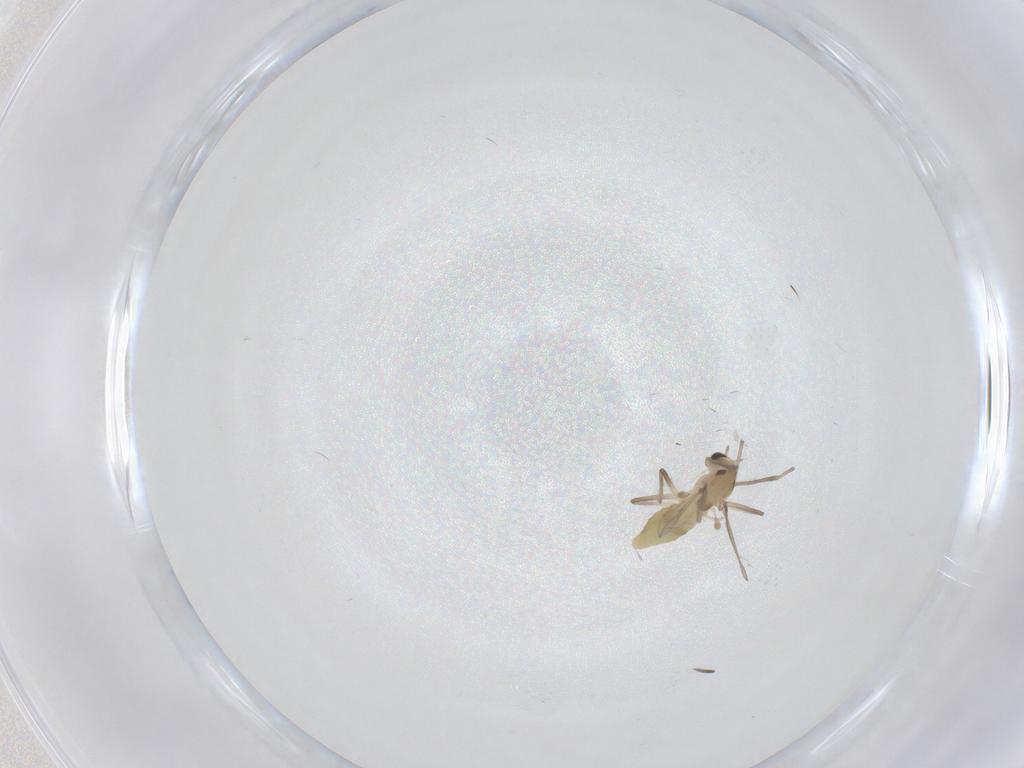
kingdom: Animalia
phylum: Arthropoda
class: Insecta
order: Diptera
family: Chironomidae
